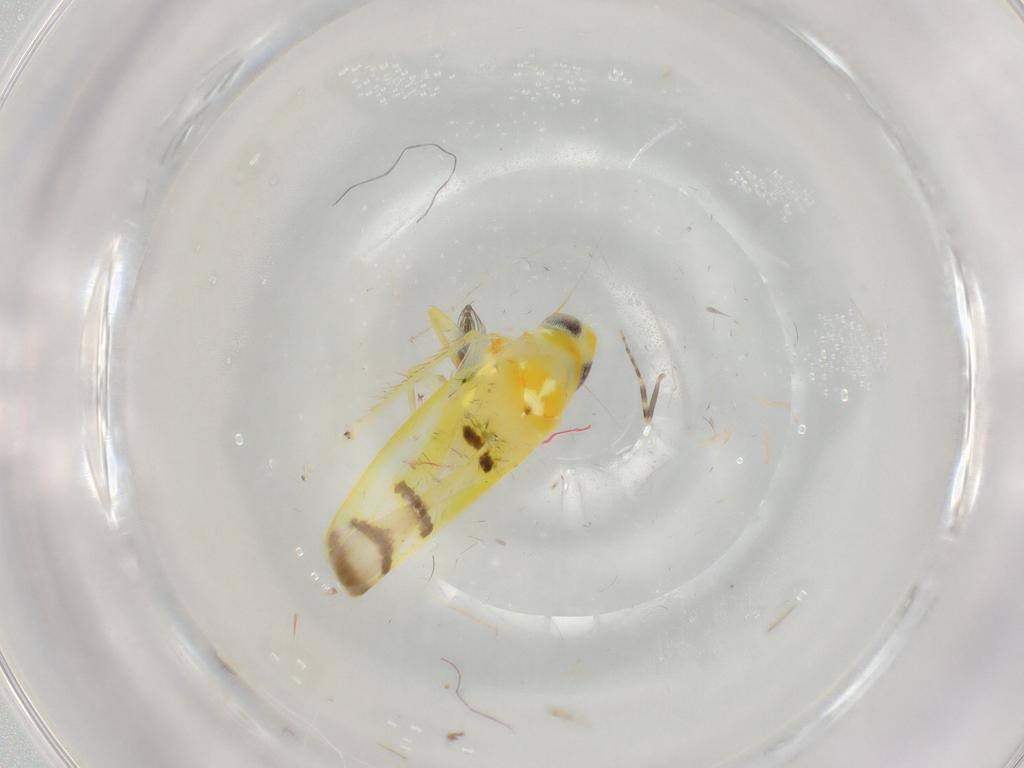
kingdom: Animalia
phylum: Arthropoda
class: Insecta
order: Hemiptera
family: Cicadellidae
